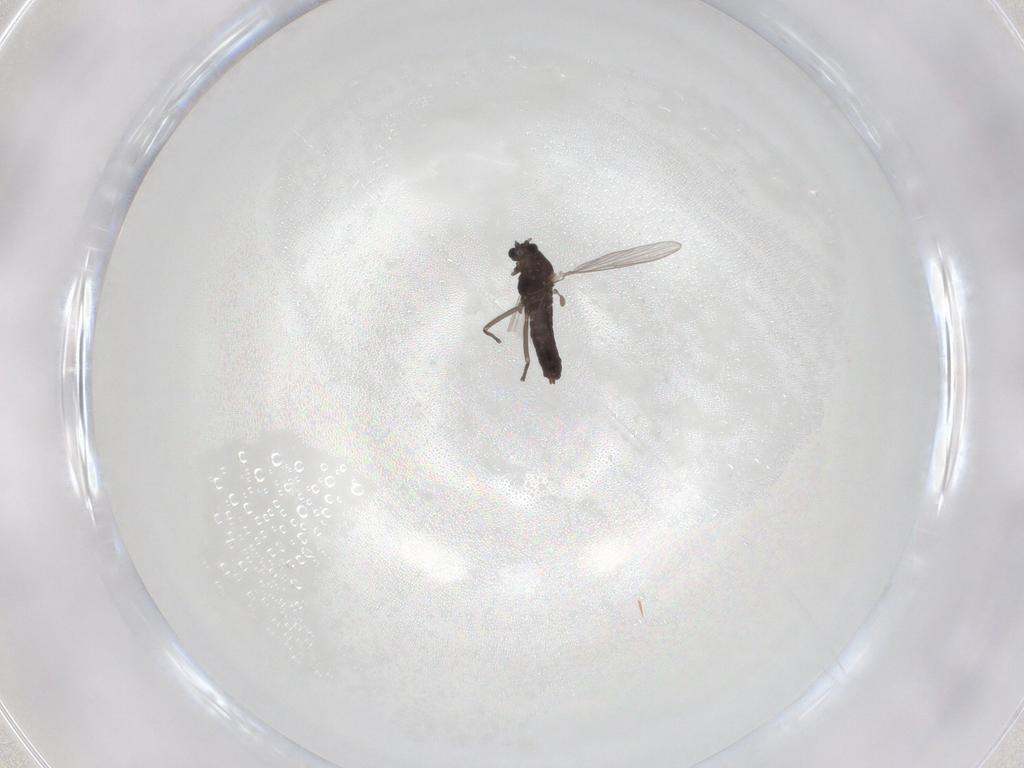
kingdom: Animalia
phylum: Arthropoda
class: Insecta
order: Diptera
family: Chironomidae
